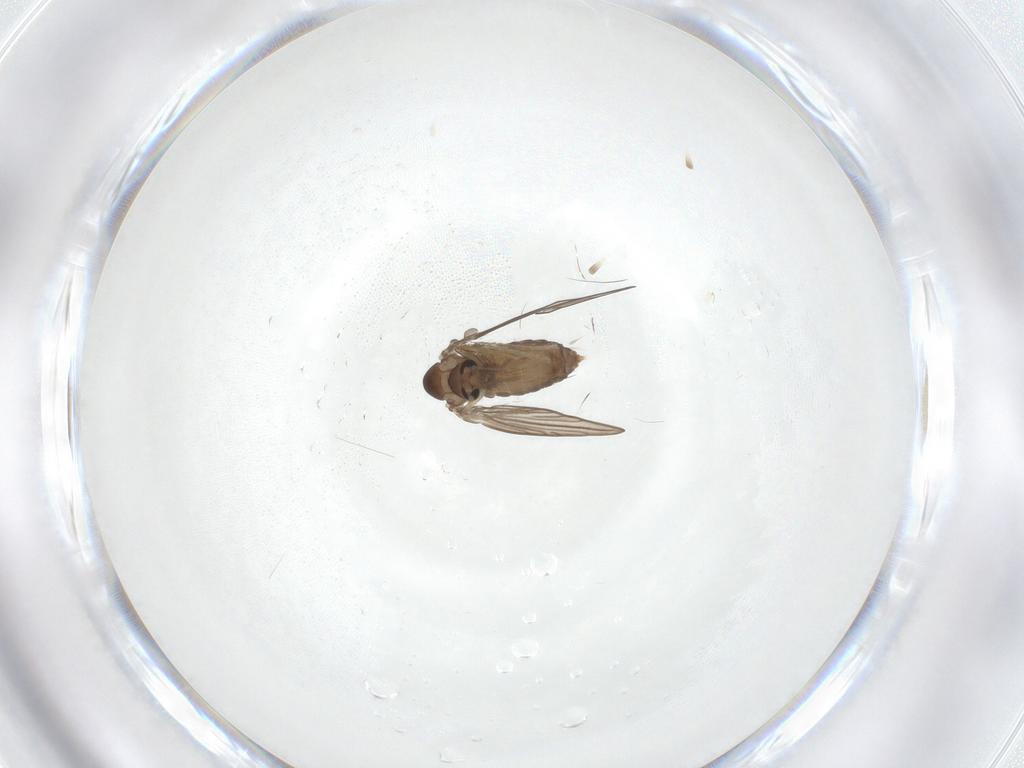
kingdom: Animalia
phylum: Arthropoda
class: Insecta
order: Diptera
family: Psychodidae
